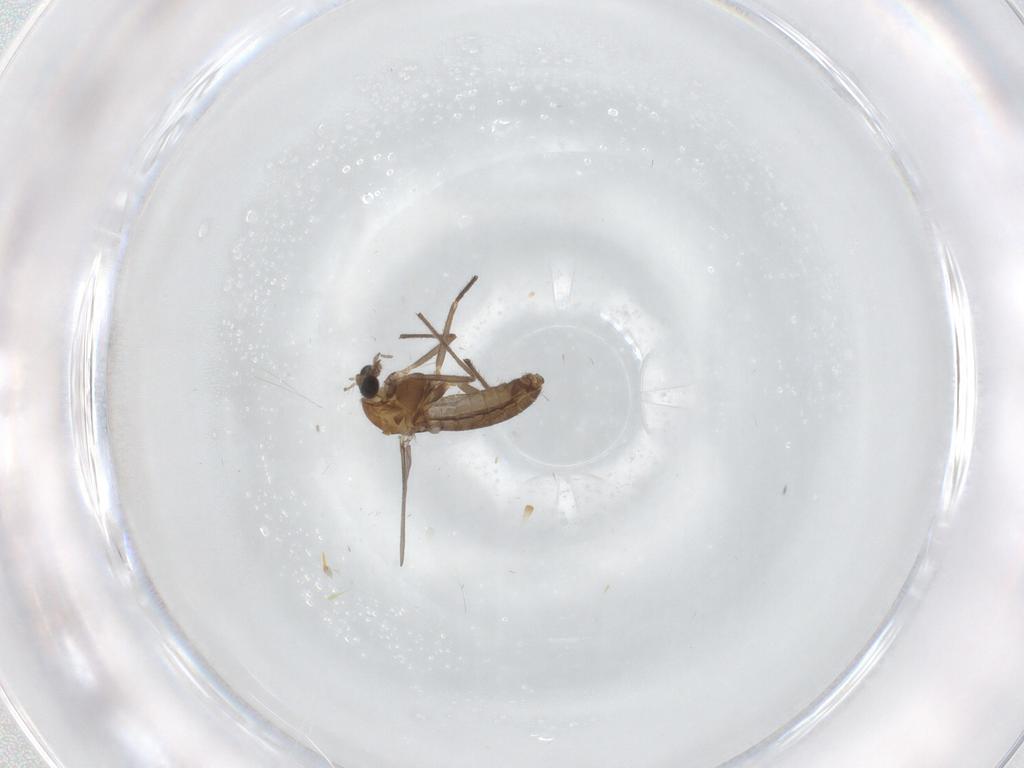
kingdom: Animalia
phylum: Arthropoda
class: Insecta
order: Diptera
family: Chironomidae
